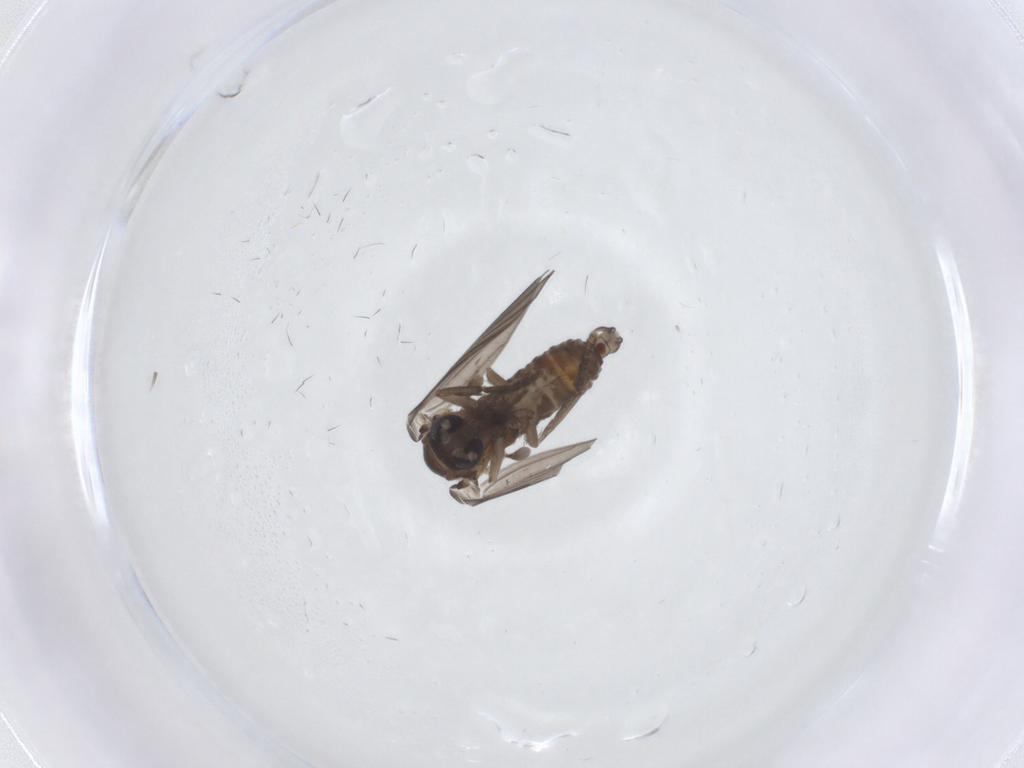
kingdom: Animalia
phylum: Arthropoda
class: Insecta
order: Diptera
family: Psychodidae
